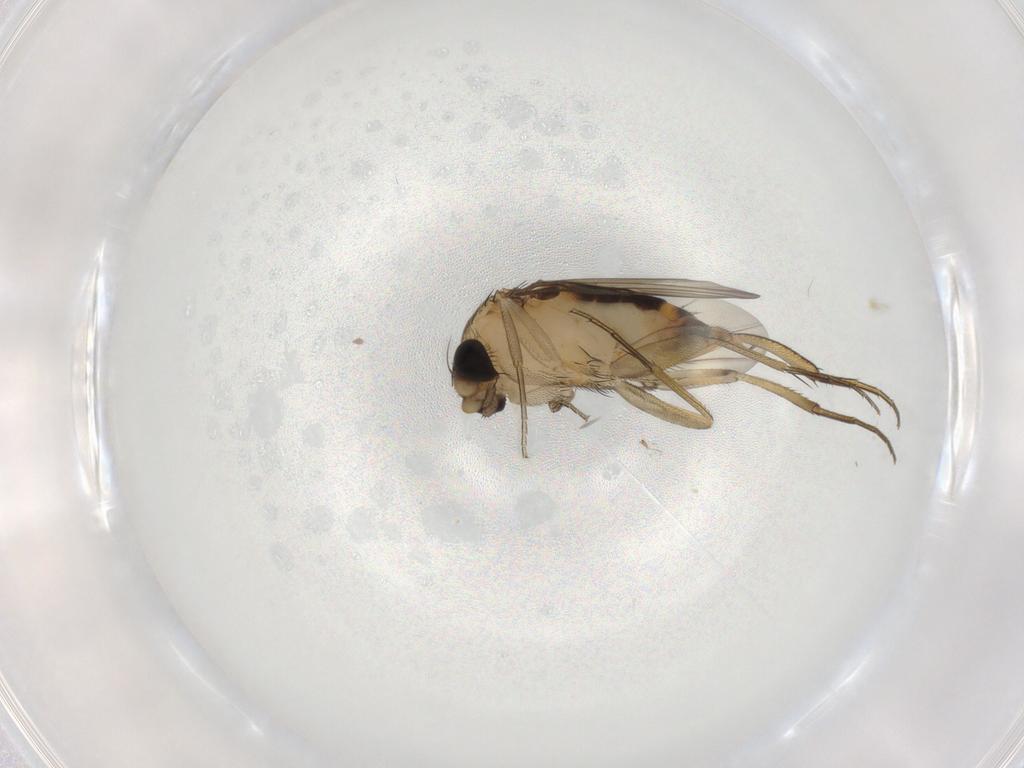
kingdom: Animalia
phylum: Arthropoda
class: Insecta
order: Diptera
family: Phoridae
